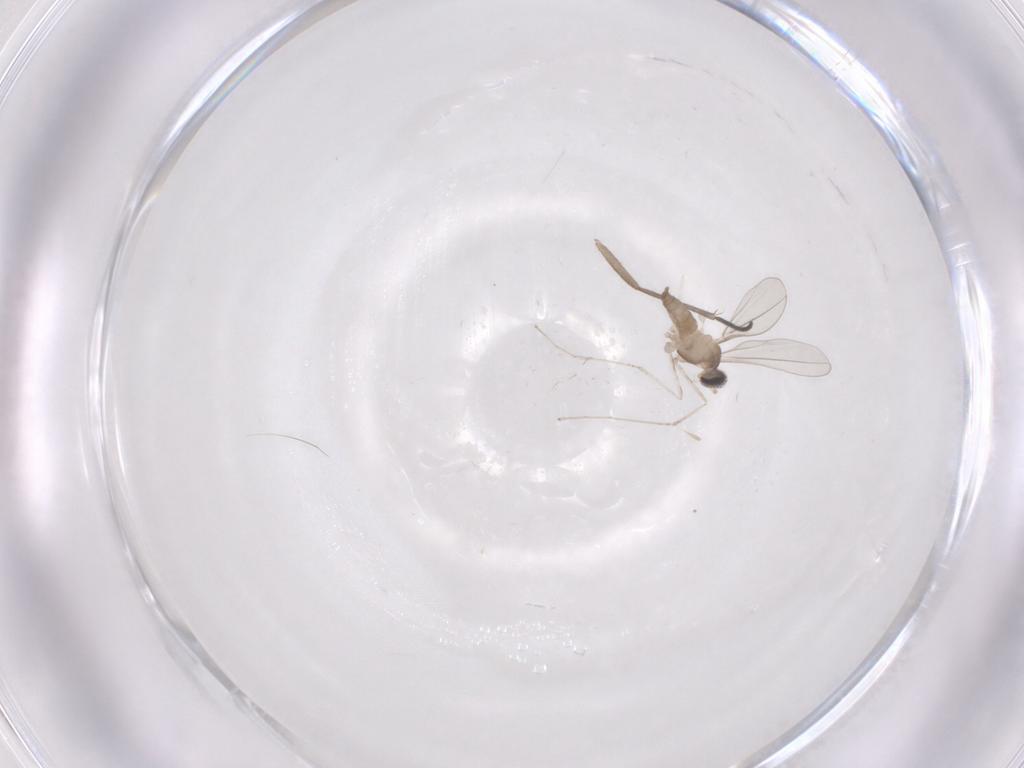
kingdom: Animalia
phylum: Arthropoda
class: Insecta
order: Diptera
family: Cecidomyiidae
